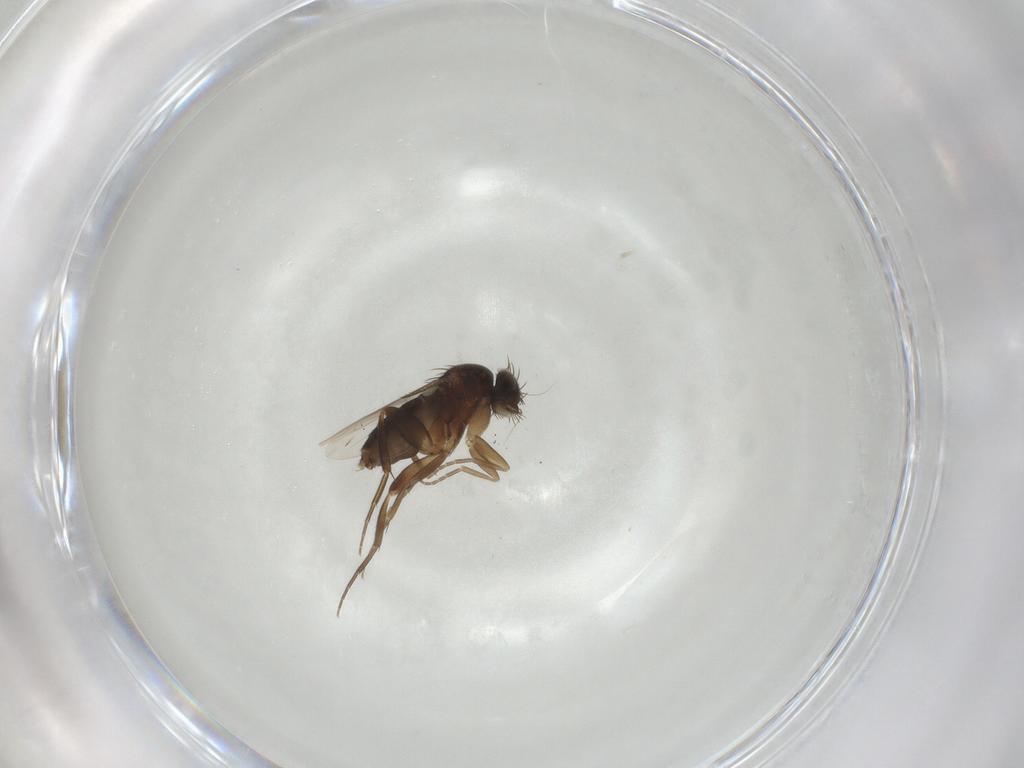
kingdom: Animalia
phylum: Arthropoda
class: Insecta
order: Diptera
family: Phoridae
